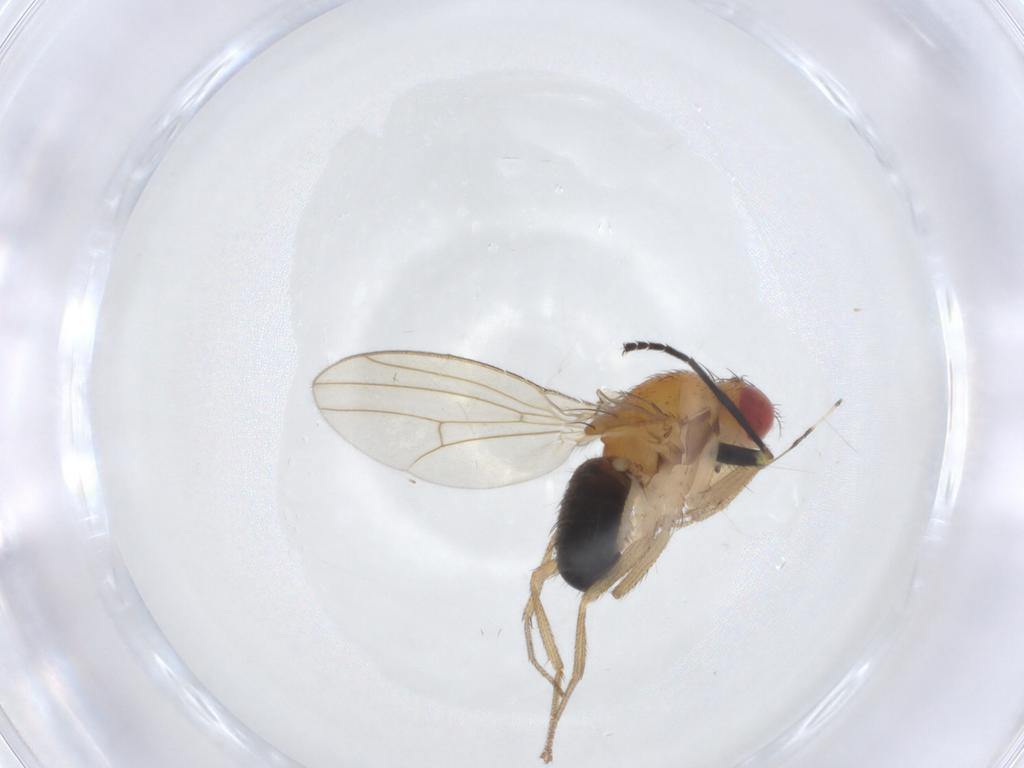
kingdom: Animalia
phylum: Arthropoda
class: Insecta
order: Diptera
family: Drosophilidae
